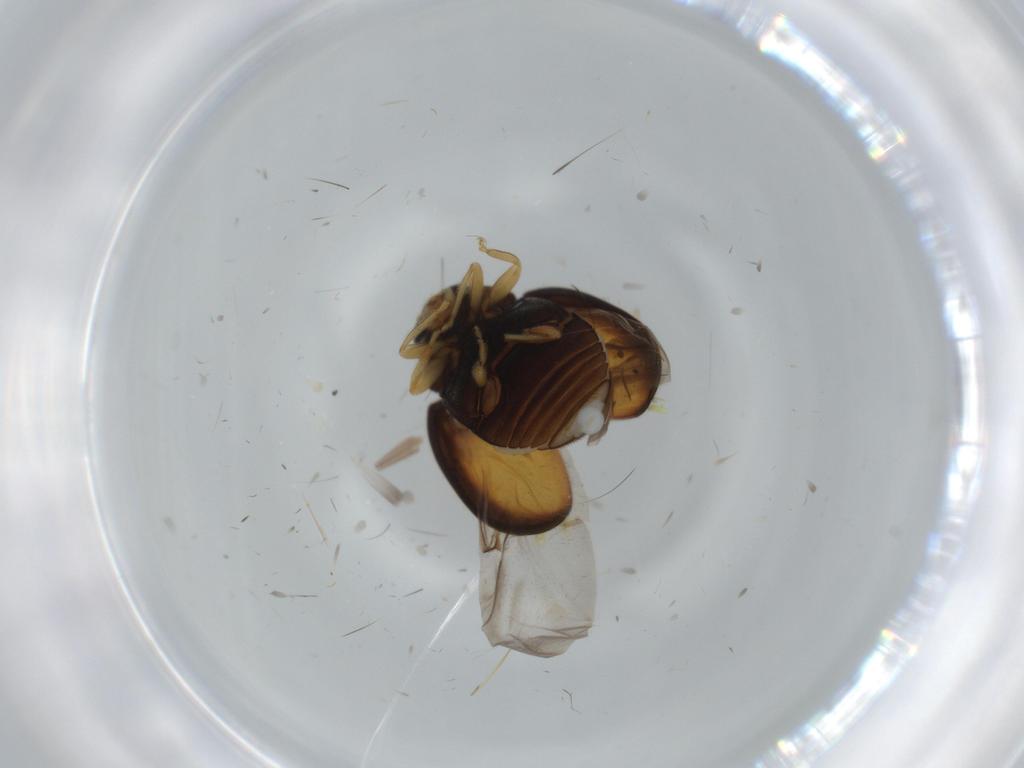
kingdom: Animalia
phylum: Arthropoda
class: Insecta
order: Coleoptera
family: Coccinellidae
